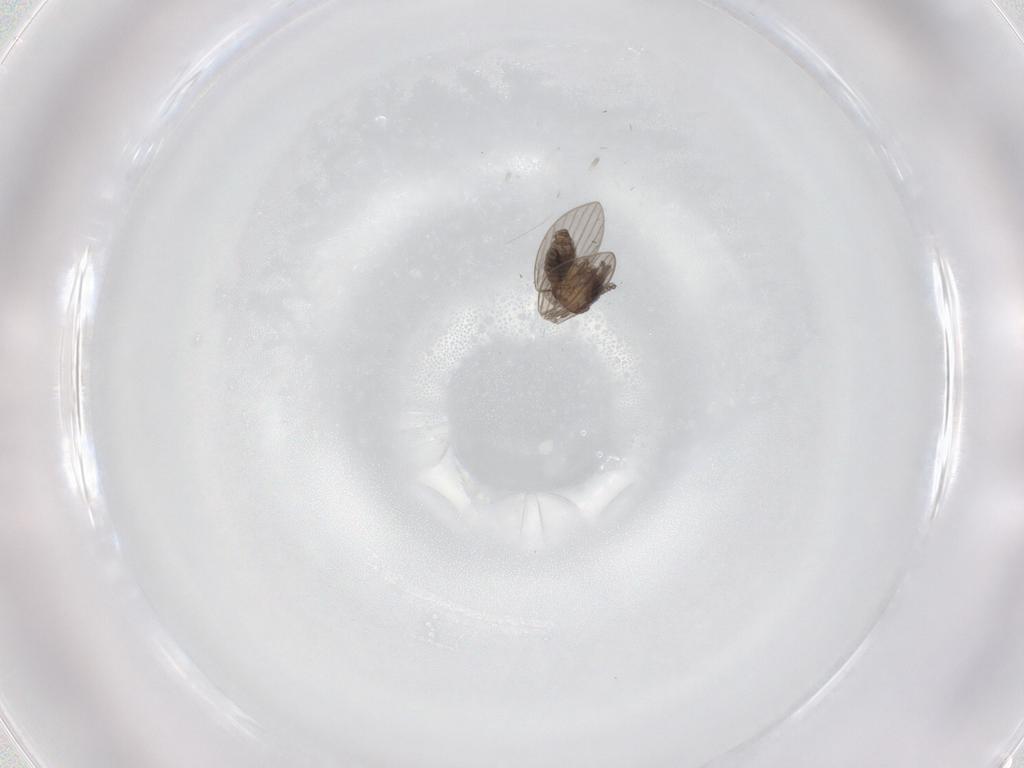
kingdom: Animalia
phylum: Arthropoda
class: Insecta
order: Diptera
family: Psychodidae
